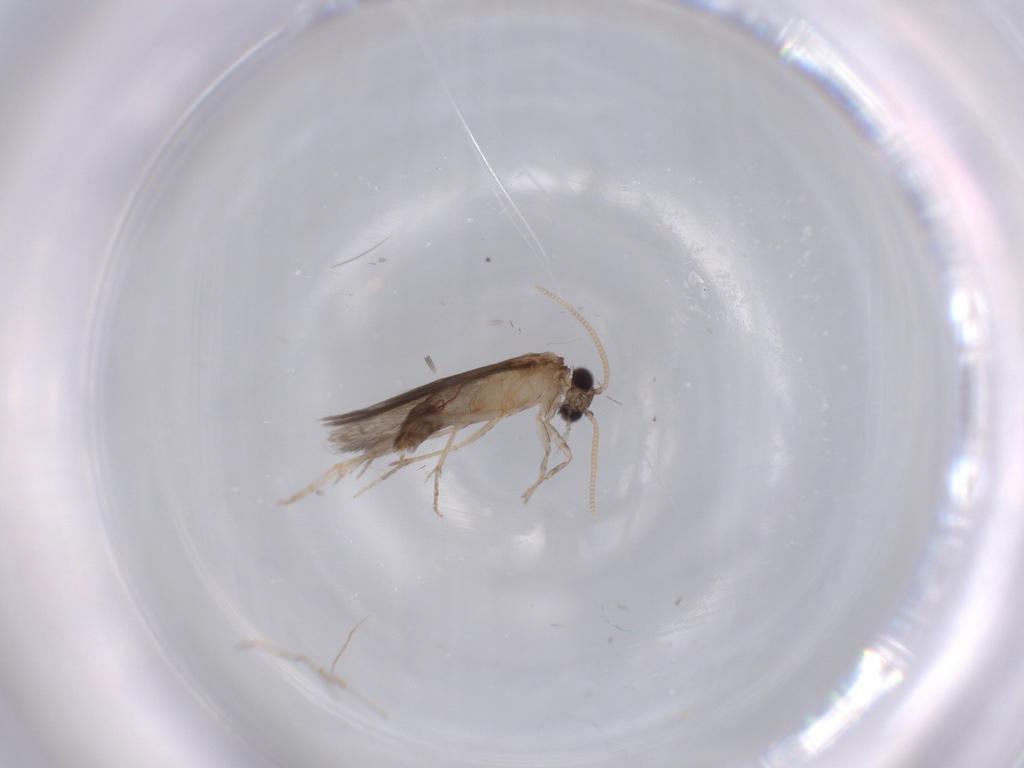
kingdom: Animalia
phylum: Arthropoda
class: Insecta
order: Trichoptera
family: Hydroptilidae
